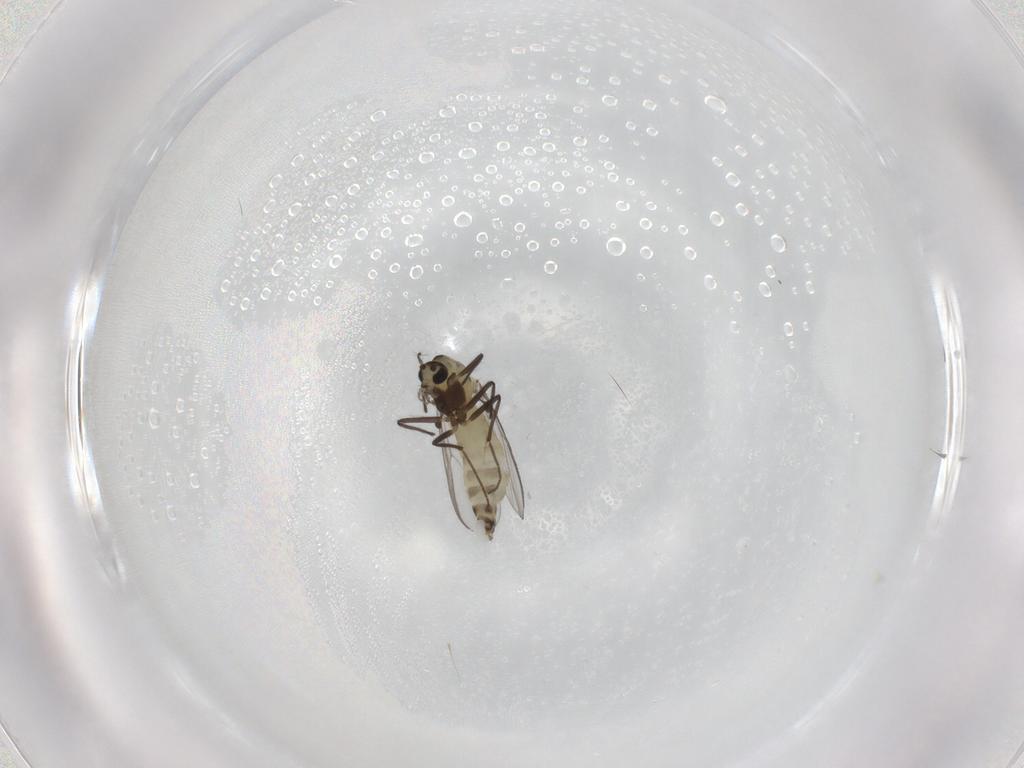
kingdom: Animalia
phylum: Arthropoda
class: Insecta
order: Diptera
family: Chironomidae
